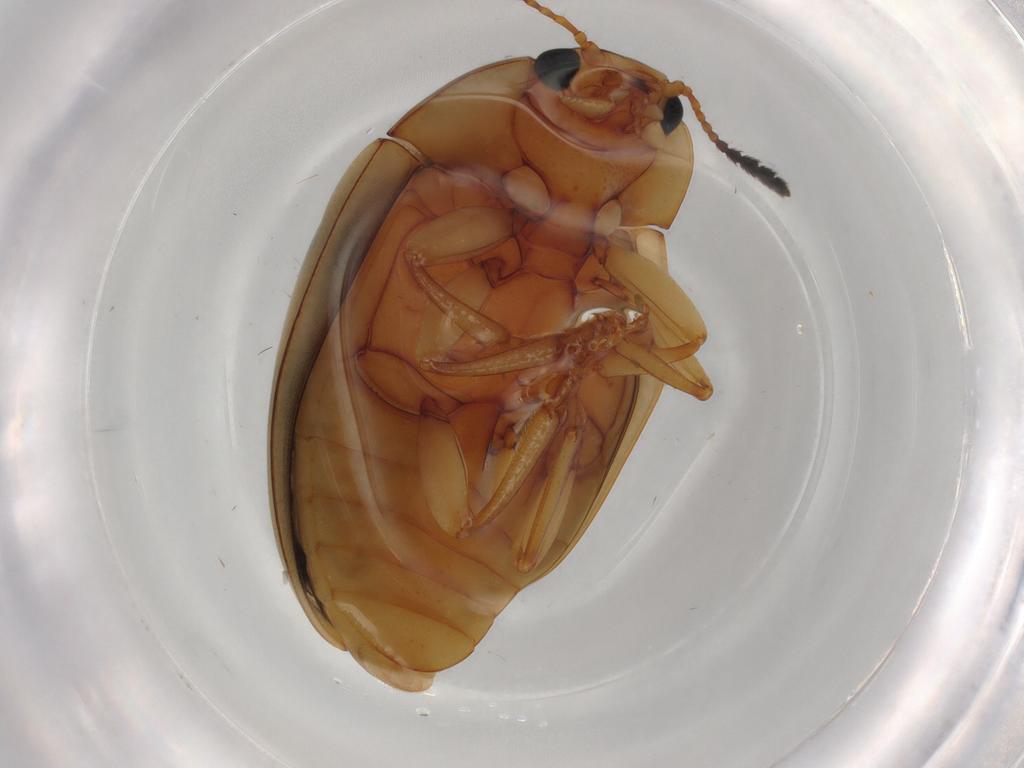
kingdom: Animalia
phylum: Arthropoda
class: Insecta
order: Coleoptera
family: Erotylidae
